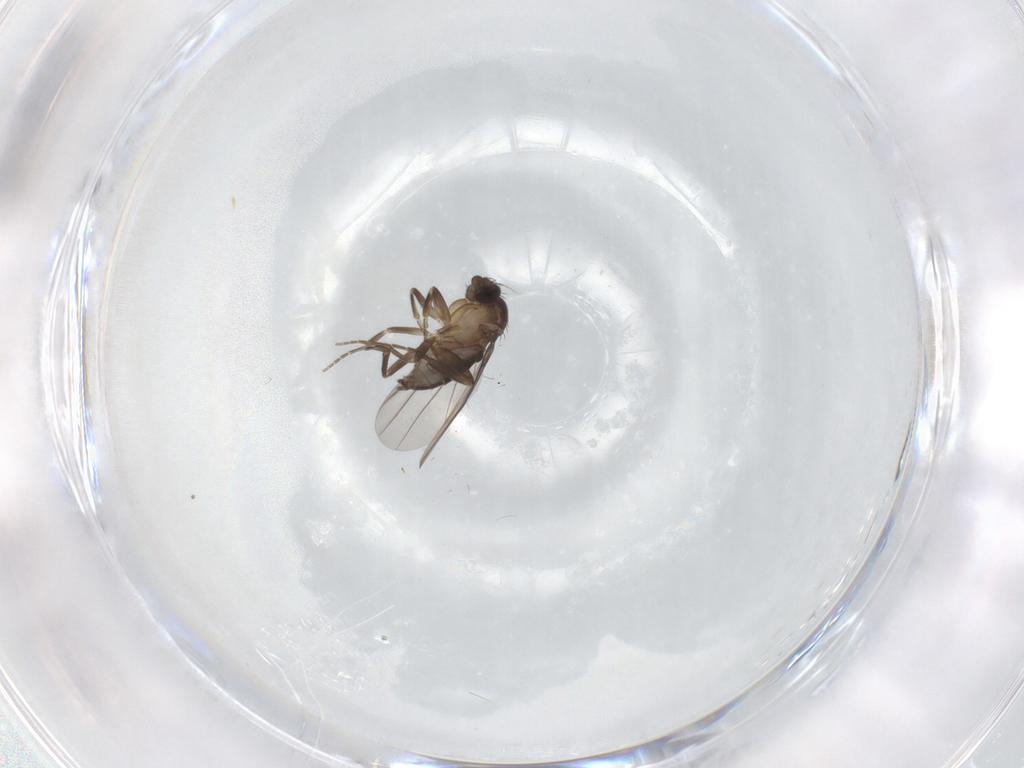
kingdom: Animalia
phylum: Arthropoda
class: Insecta
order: Diptera
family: Phoridae
